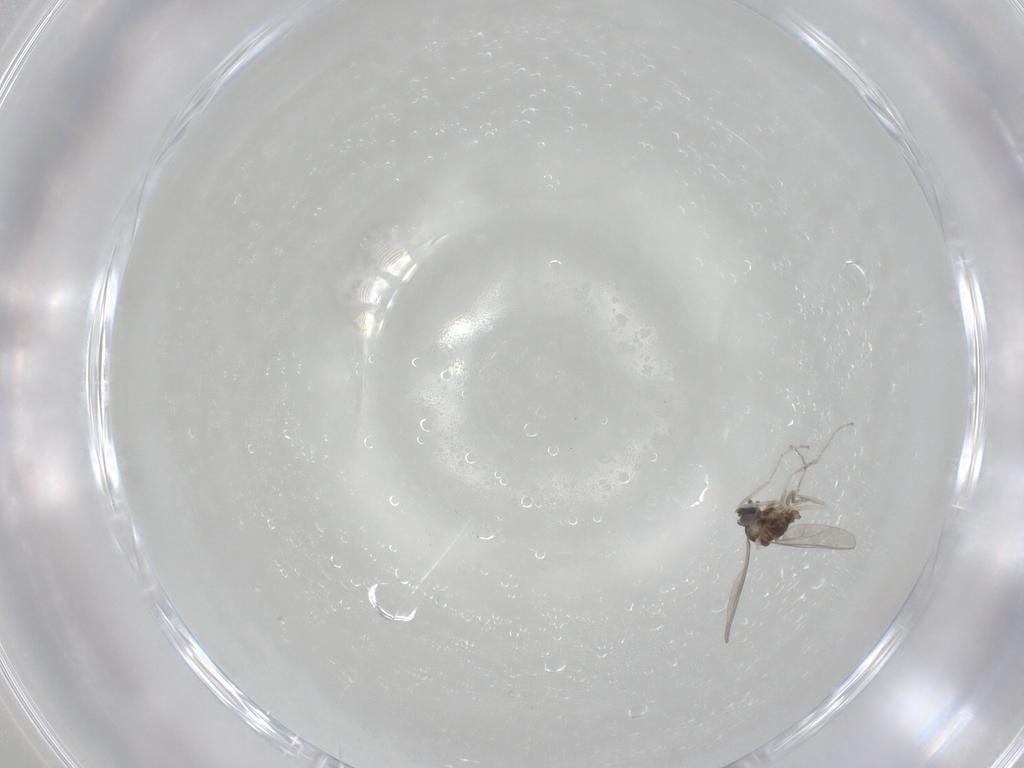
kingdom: Animalia
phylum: Arthropoda
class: Insecta
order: Diptera
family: Cecidomyiidae
